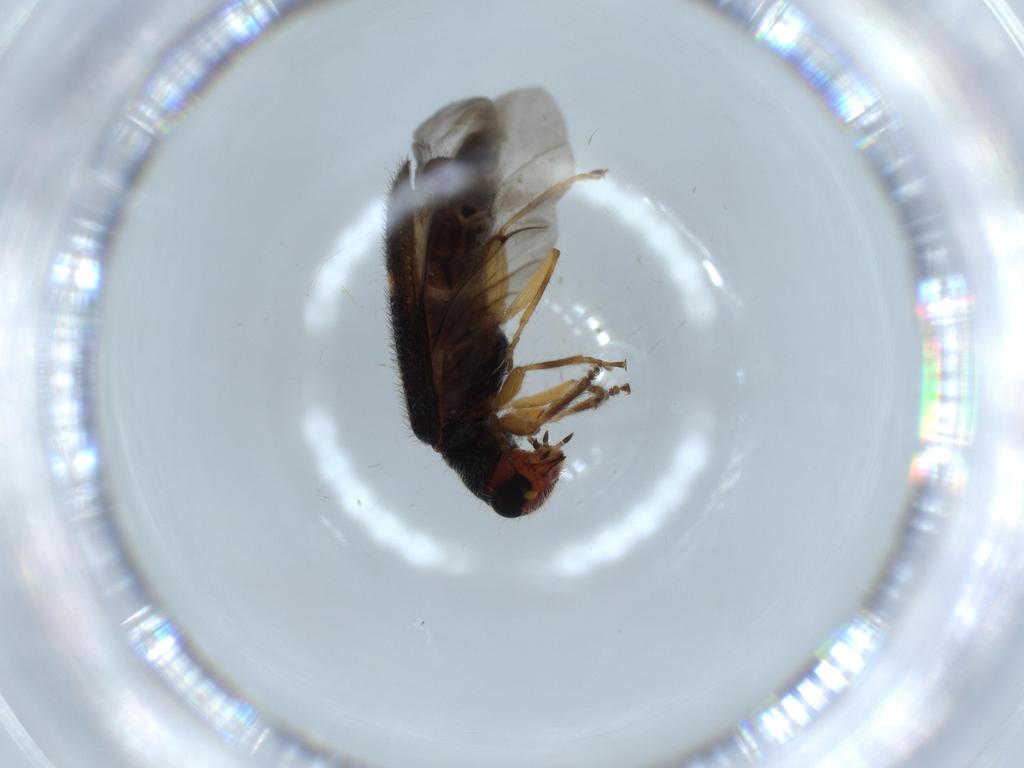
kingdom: Animalia
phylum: Arthropoda
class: Insecta
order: Coleoptera
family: Cleridae
